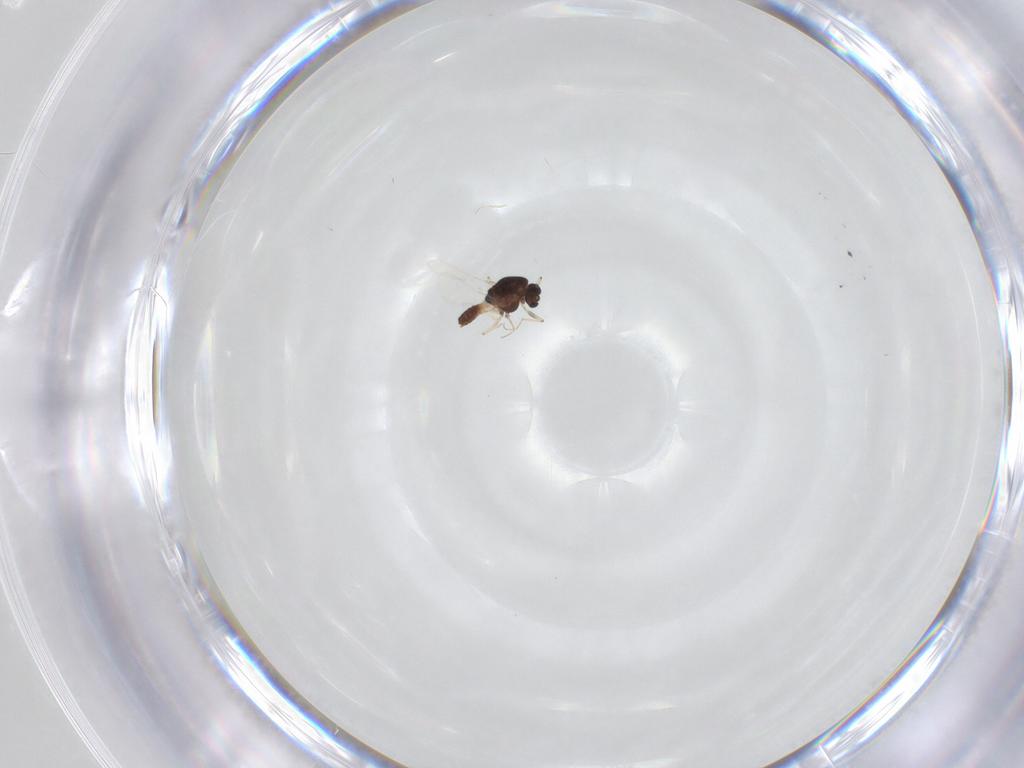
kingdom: Animalia
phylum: Arthropoda
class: Insecta
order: Diptera
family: Chironomidae
